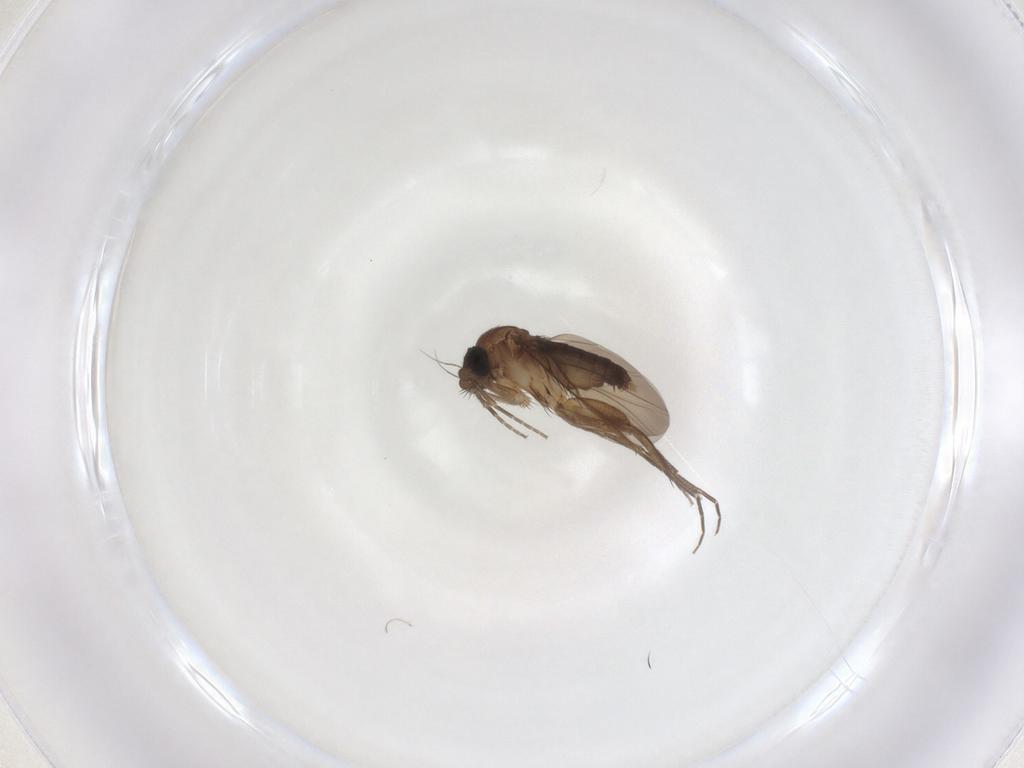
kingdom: Animalia
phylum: Arthropoda
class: Insecta
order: Diptera
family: Phoridae
